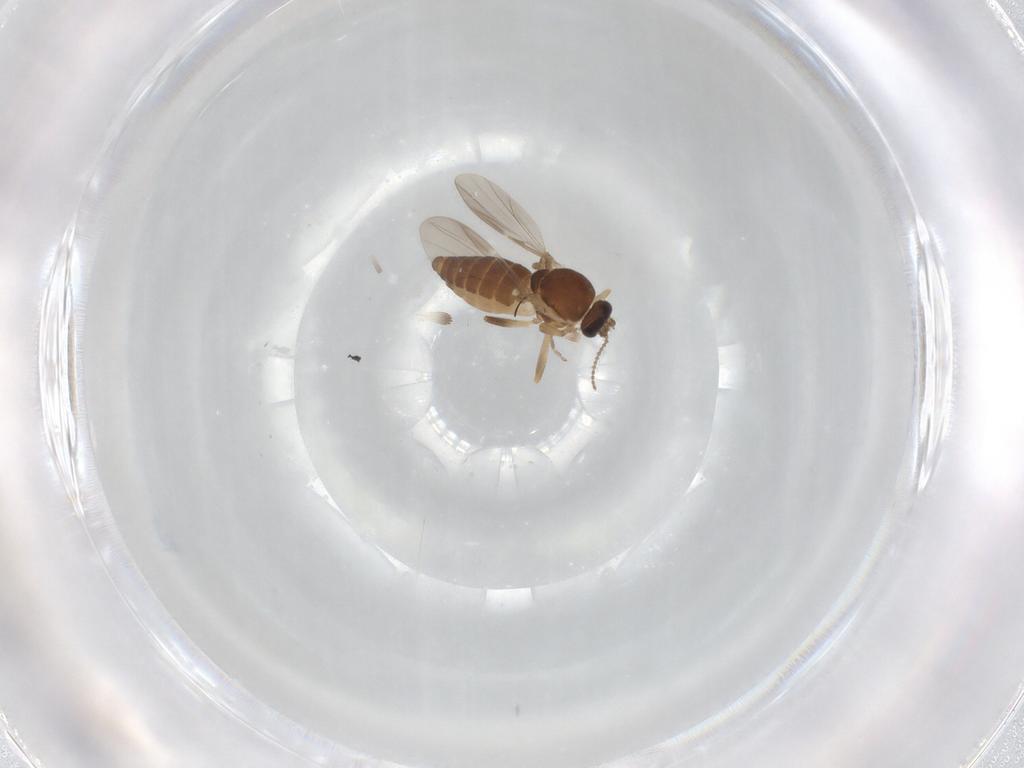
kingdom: Animalia
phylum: Arthropoda
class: Insecta
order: Diptera
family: Ceratopogonidae
